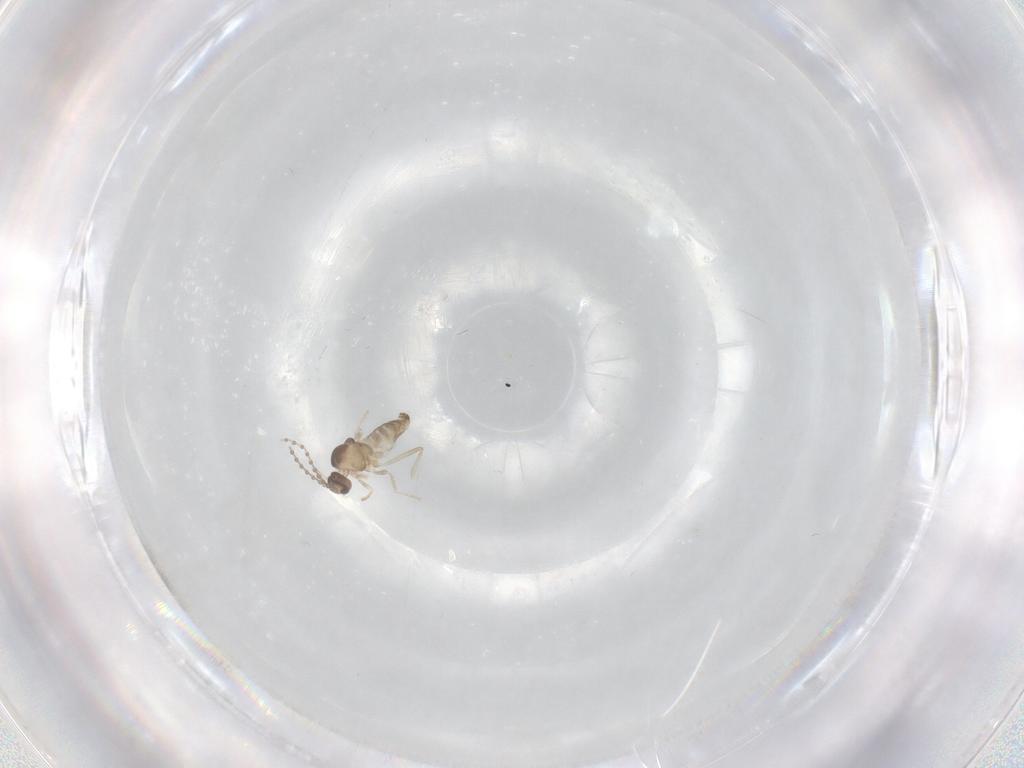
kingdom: Animalia
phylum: Arthropoda
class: Insecta
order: Diptera
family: Cecidomyiidae
